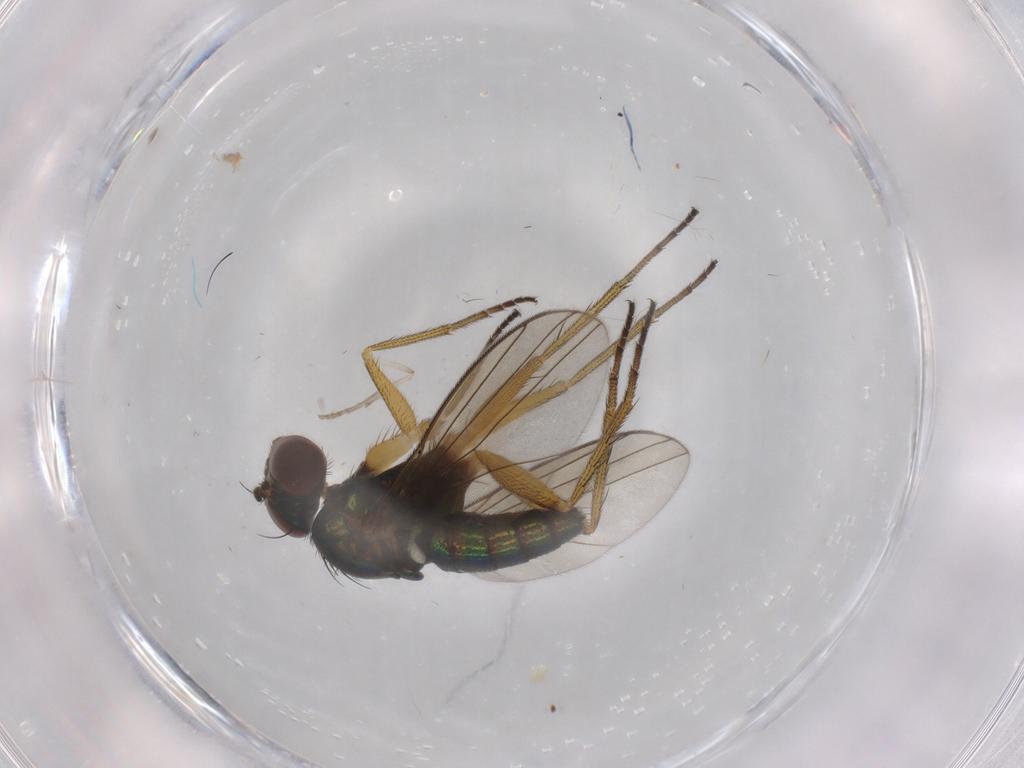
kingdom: Animalia
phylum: Arthropoda
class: Insecta
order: Diptera
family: Psychodidae
